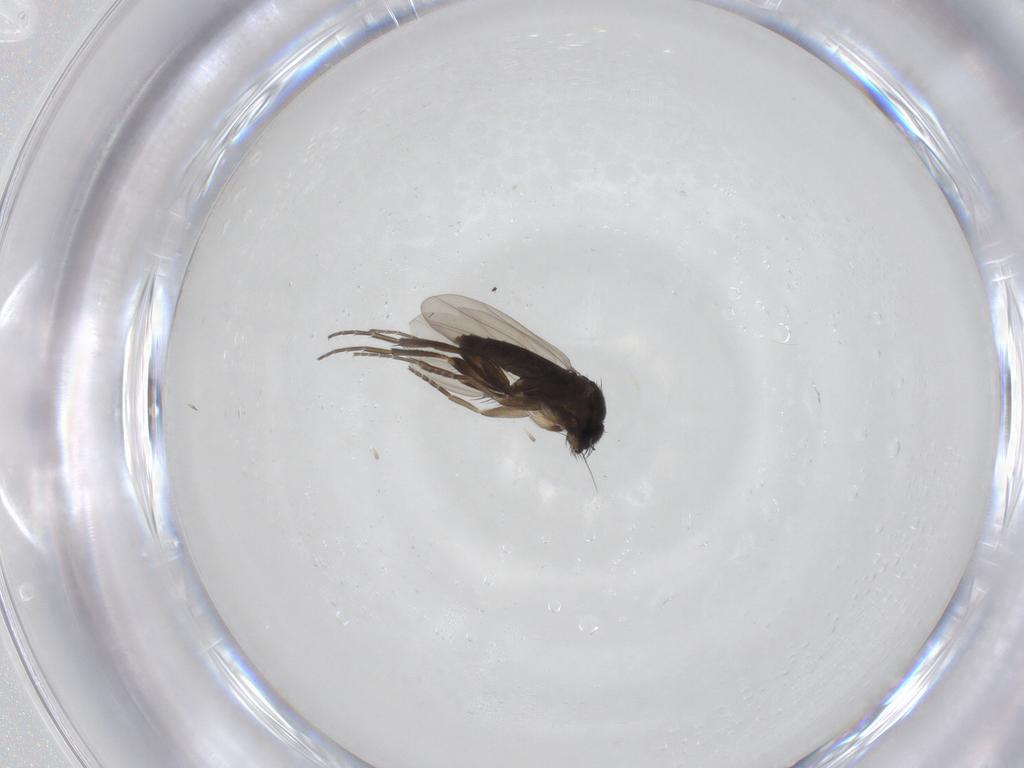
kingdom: Animalia
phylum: Arthropoda
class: Insecta
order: Diptera
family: Phoridae
